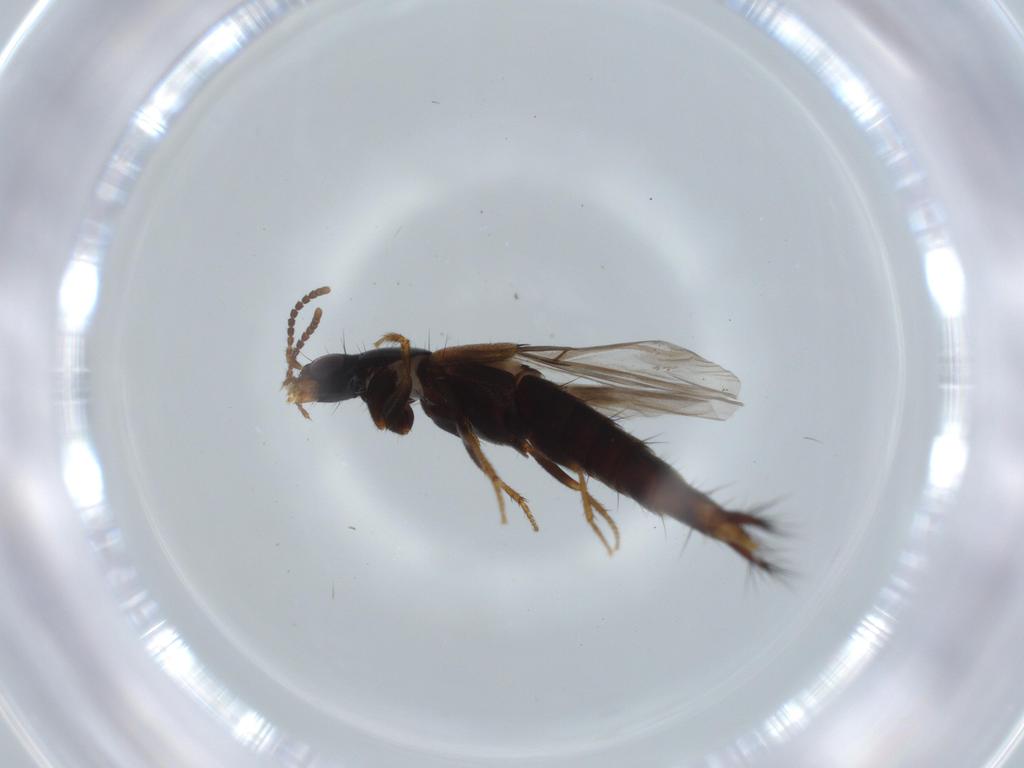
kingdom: Animalia
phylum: Arthropoda
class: Insecta
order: Coleoptera
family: Staphylinidae
